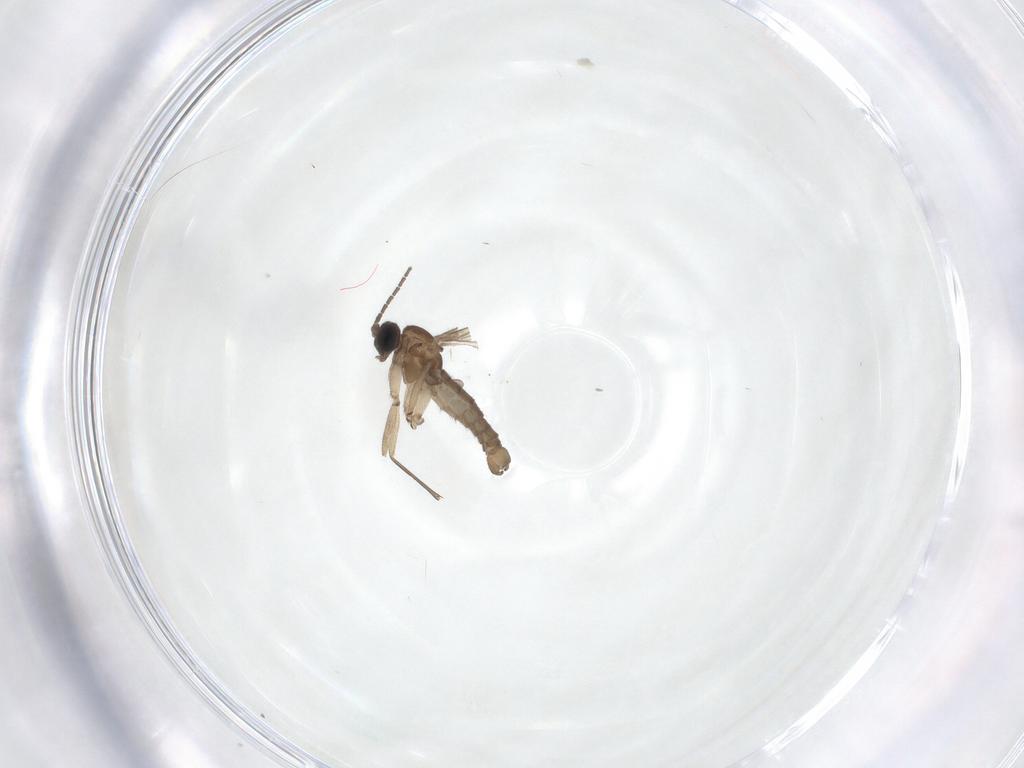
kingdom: Animalia
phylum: Arthropoda
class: Insecta
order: Diptera
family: Sciaridae
